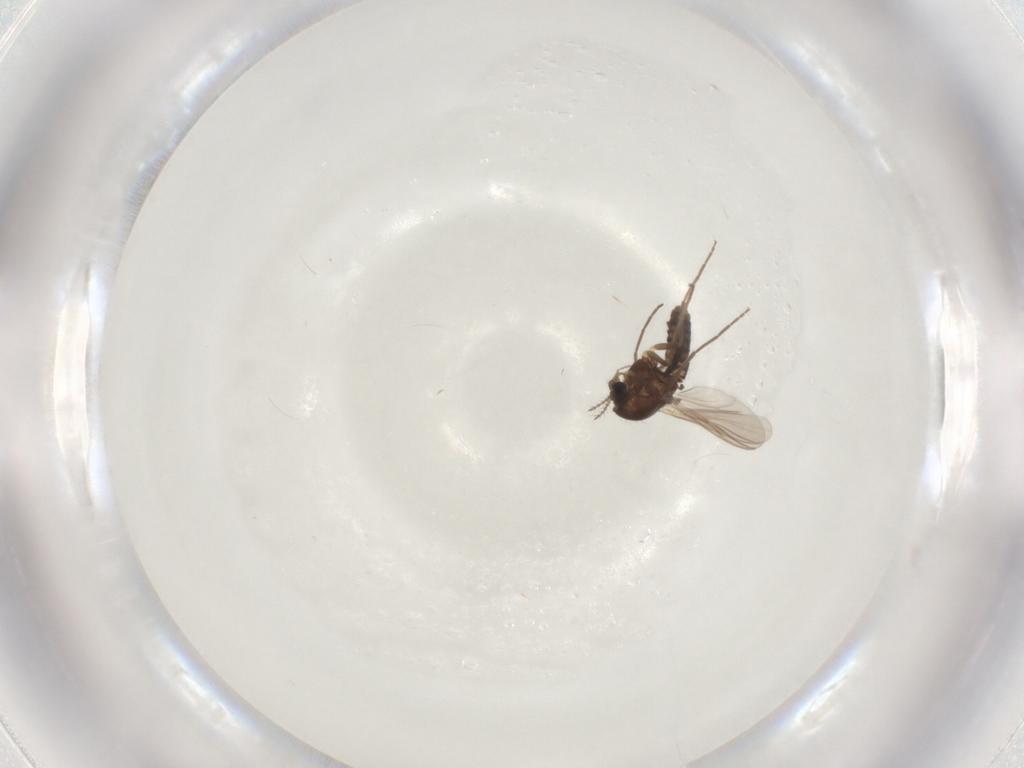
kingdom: Animalia
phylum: Arthropoda
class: Insecta
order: Diptera
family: Chironomidae
